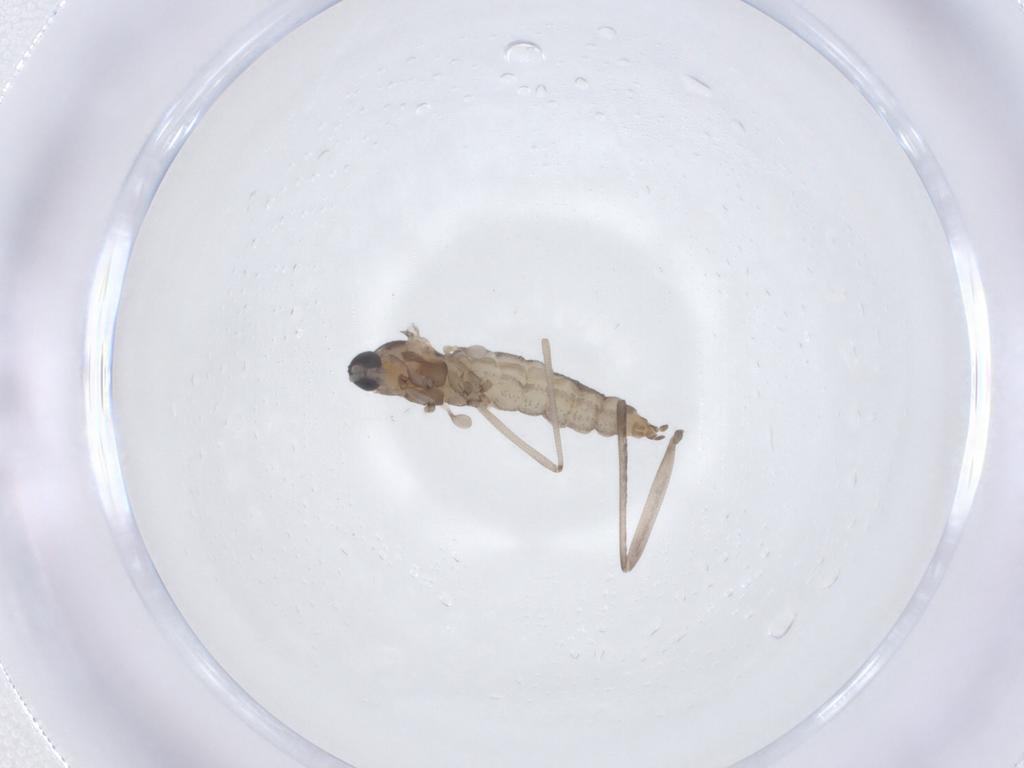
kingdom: Animalia
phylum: Arthropoda
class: Insecta
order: Diptera
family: Cecidomyiidae
